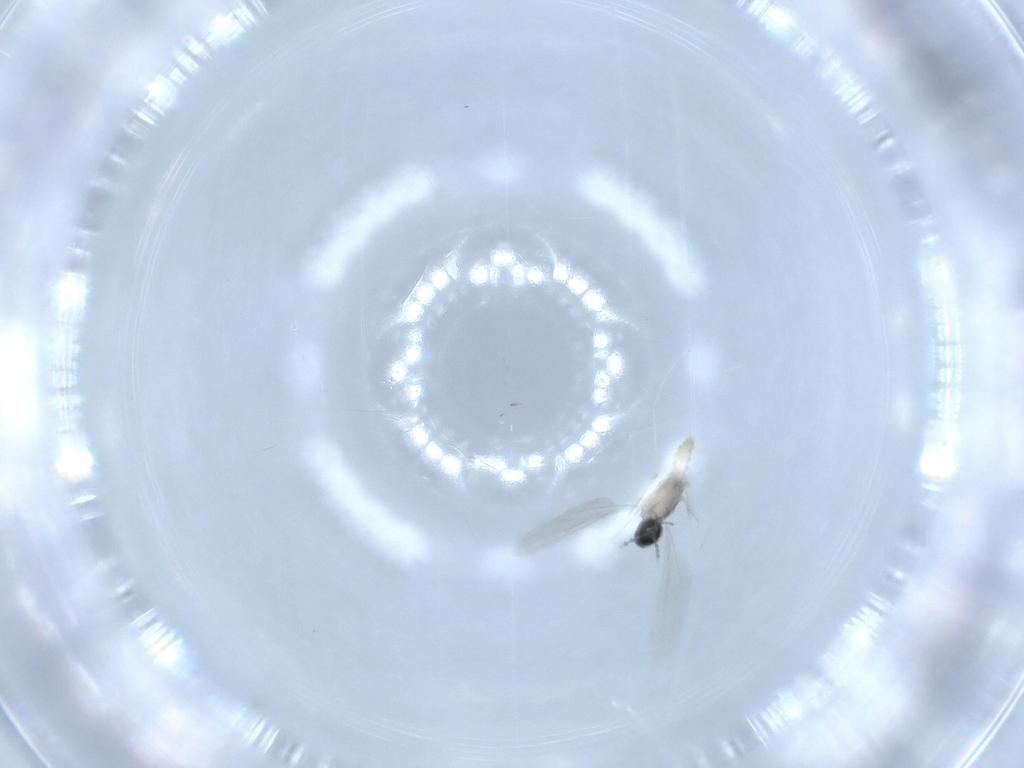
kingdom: Animalia
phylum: Arthropoda
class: Insecta
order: Diptera
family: Cecidomyiidae
